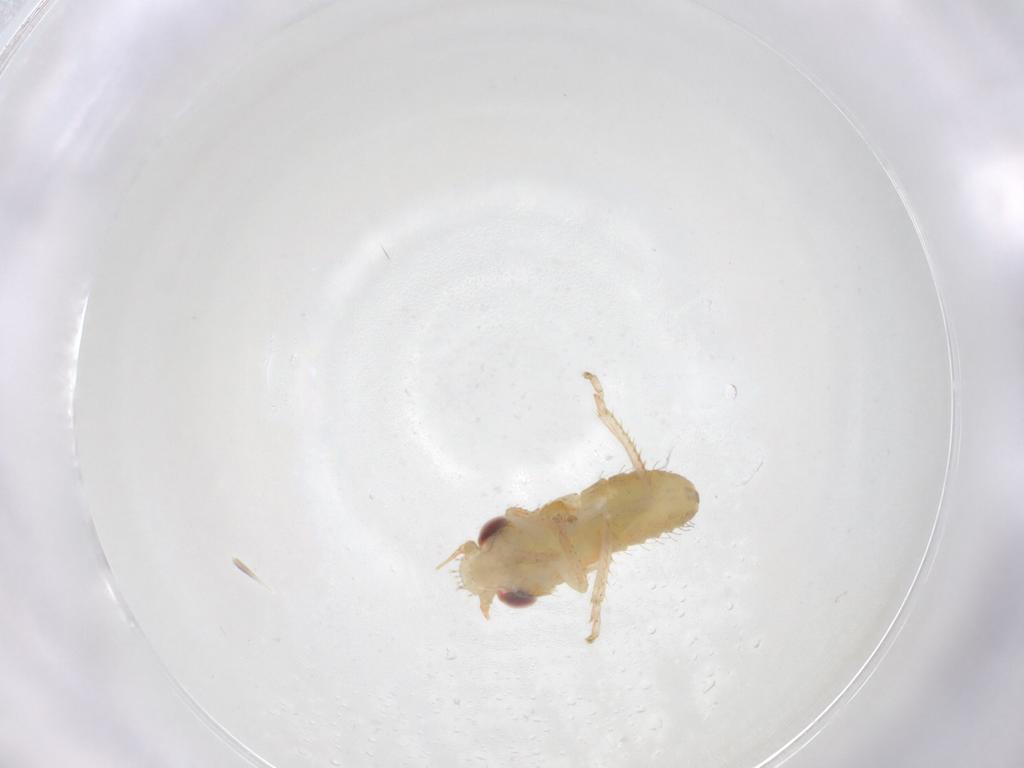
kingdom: Animalia
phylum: Arthropoda
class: Insecta
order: Hemiptera
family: Cicadellidae
